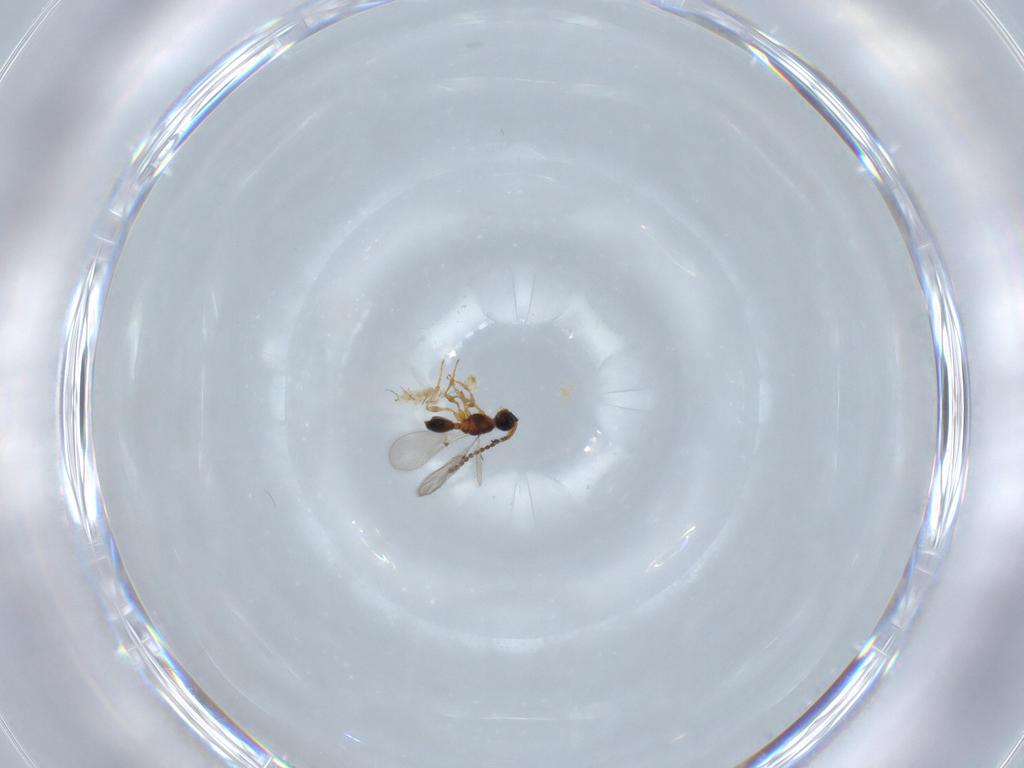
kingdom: Animalia
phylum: Arthropoda
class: Insecta
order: Hymenoptera
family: Diapriidae
